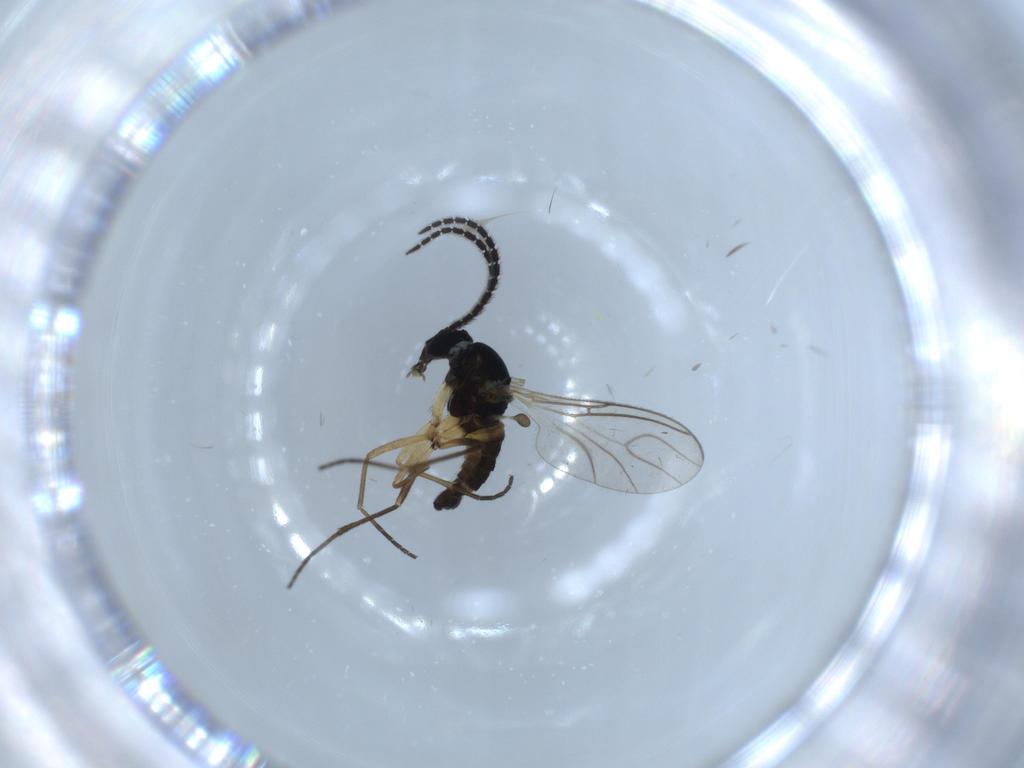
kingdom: Animalia
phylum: Arthropoda
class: Insecta
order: Diptera
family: Sciaridae
